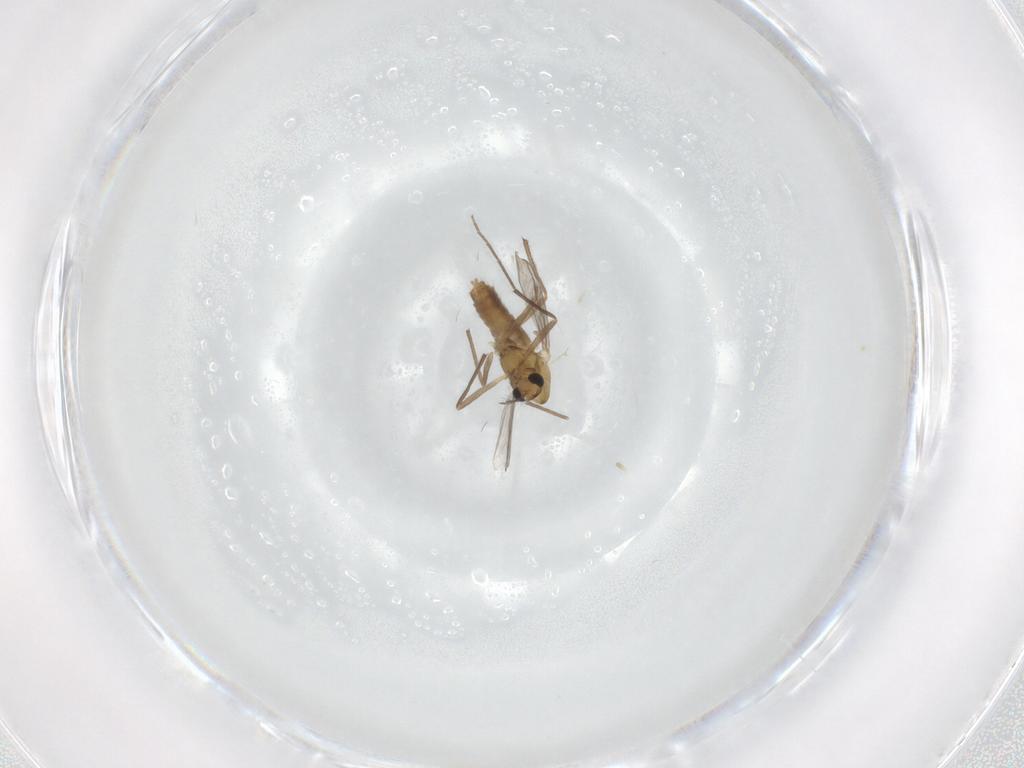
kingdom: Animalia
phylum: Arthropoda
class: Insecta
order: Diptera
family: Chironomidae
